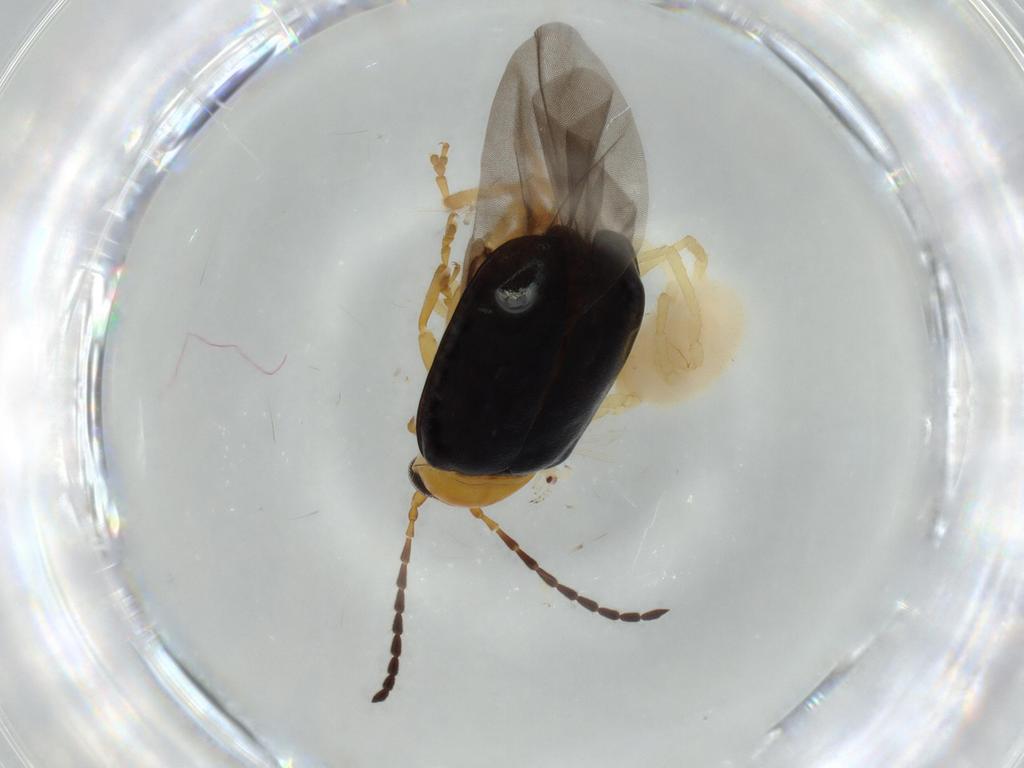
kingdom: Animalia
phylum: Arthropoda
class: Insecta
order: Coleoptera
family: Chrysomelidae
